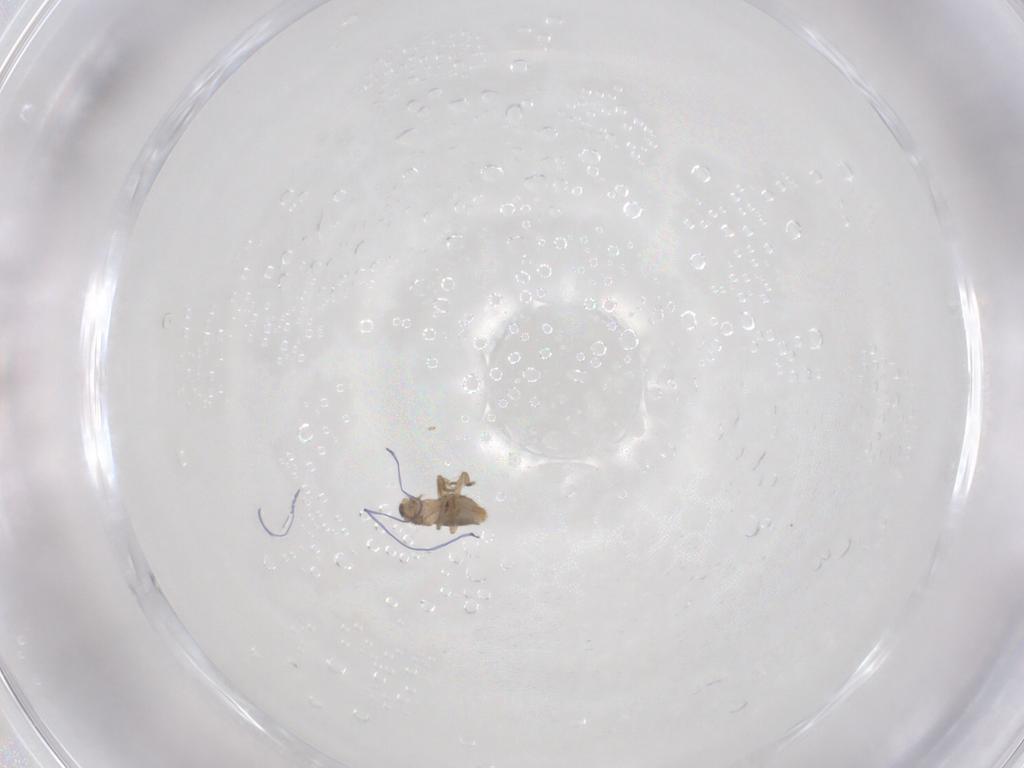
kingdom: Animalia
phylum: Arthropoda
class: Insecta
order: Diptera
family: Phoridae
